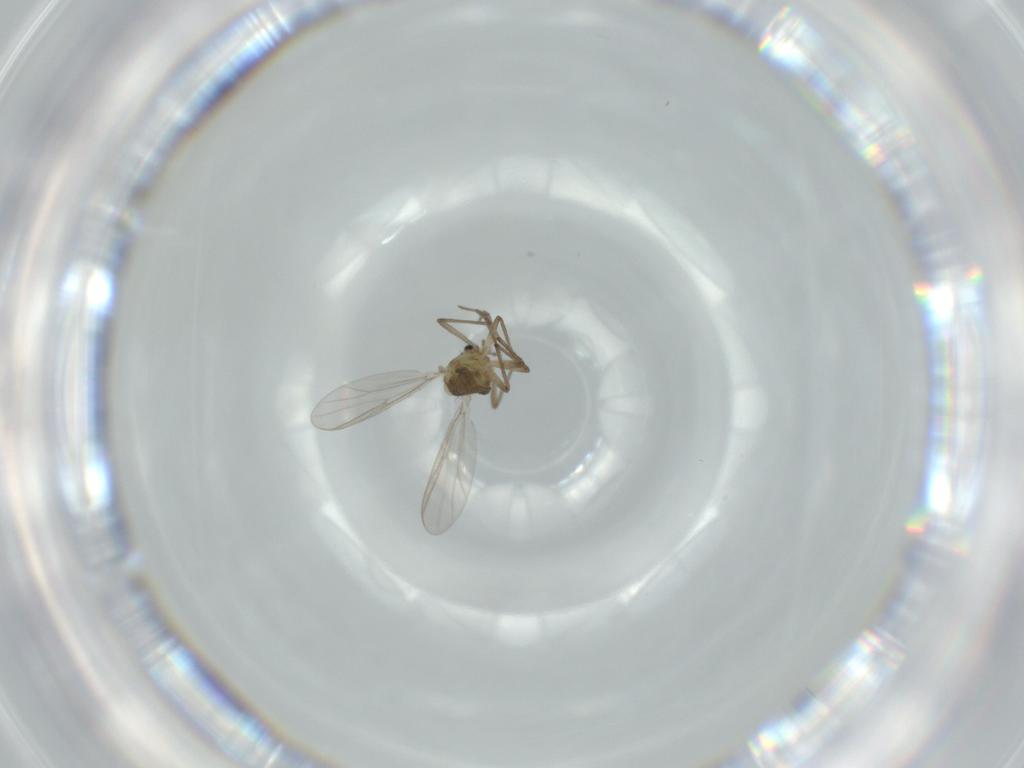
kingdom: Animalia
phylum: Arthropoda
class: Insecta
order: Diptera
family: Chironomidae
